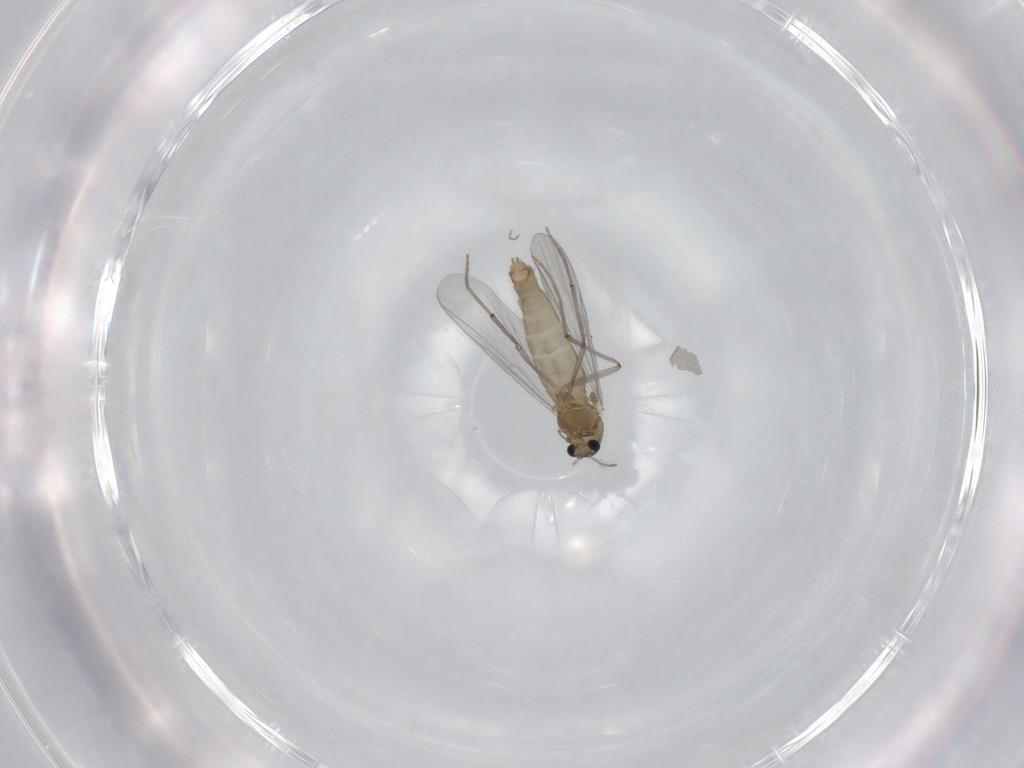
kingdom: Animalia
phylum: Arthropoda
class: Insecta
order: Diptera
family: Chironomidae
